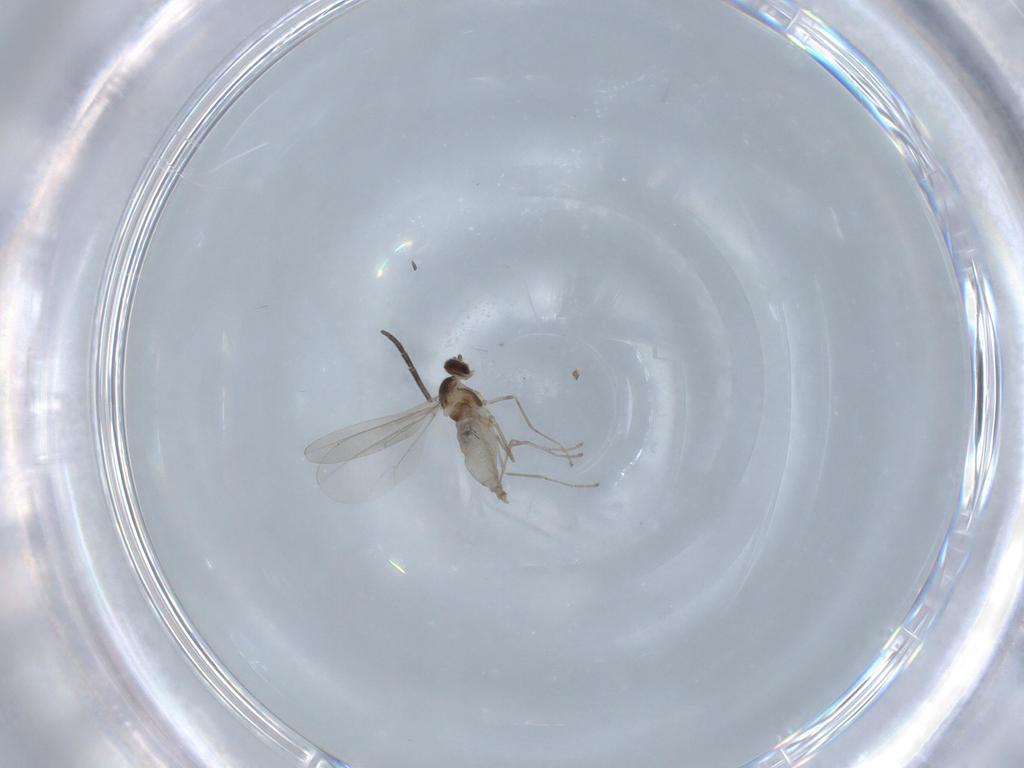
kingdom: Animalia
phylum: Arthropoda
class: Insecta
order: Diptera
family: Cecidomyiidae
